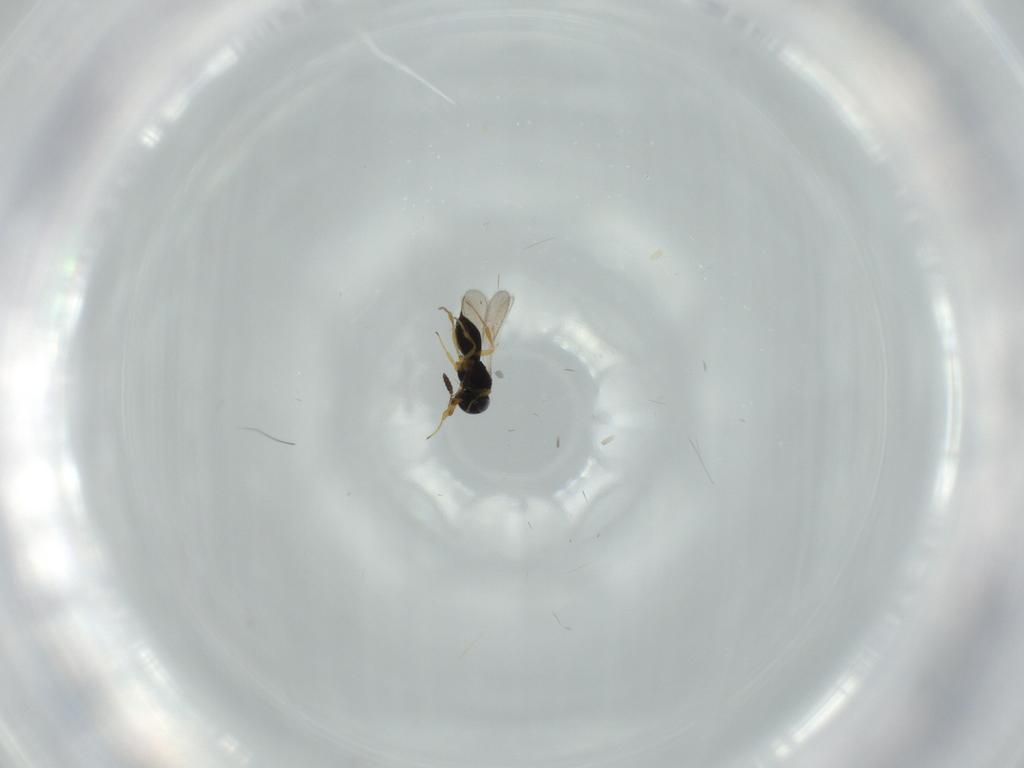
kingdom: Animalia
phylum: Arthropoda
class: Insecta
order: Hymenoptera
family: Scelionidae
